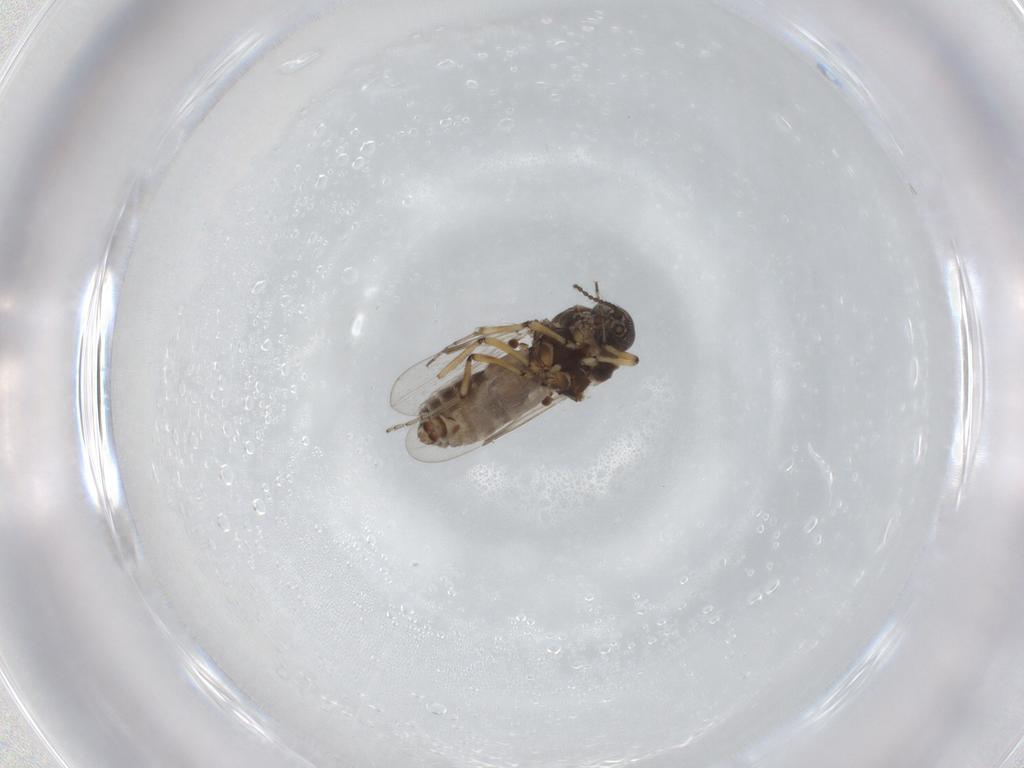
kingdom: Animalia
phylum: Arthropoda
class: Insecta
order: Diptera
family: Ceratopogonidae
